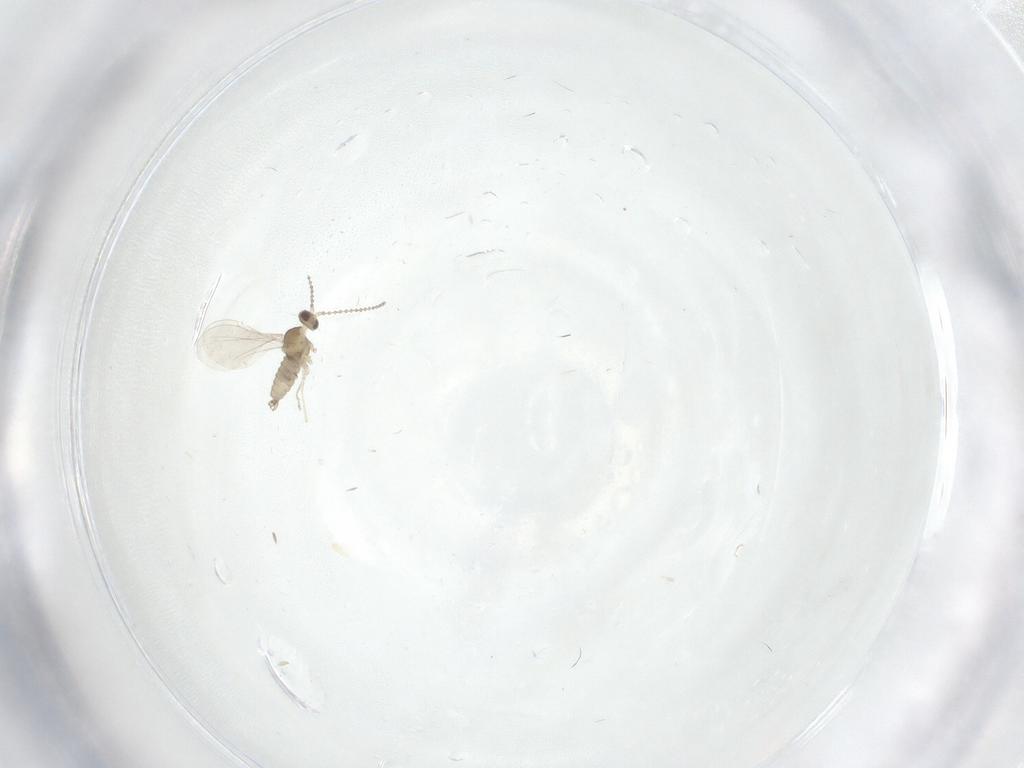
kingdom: Animalia
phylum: Arthropoda
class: Insecta
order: Diptera
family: Cecidomyiidae
